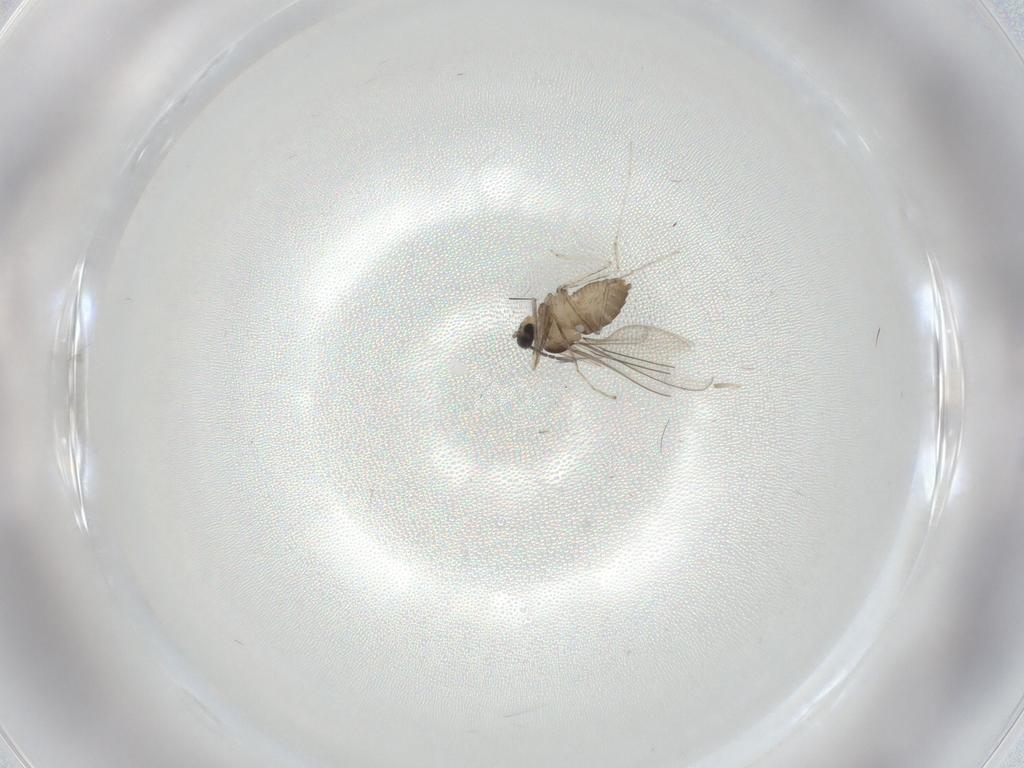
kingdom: Animalia
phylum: Arthropoda
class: Insecta
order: Diptera
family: Cecidomyiidae
